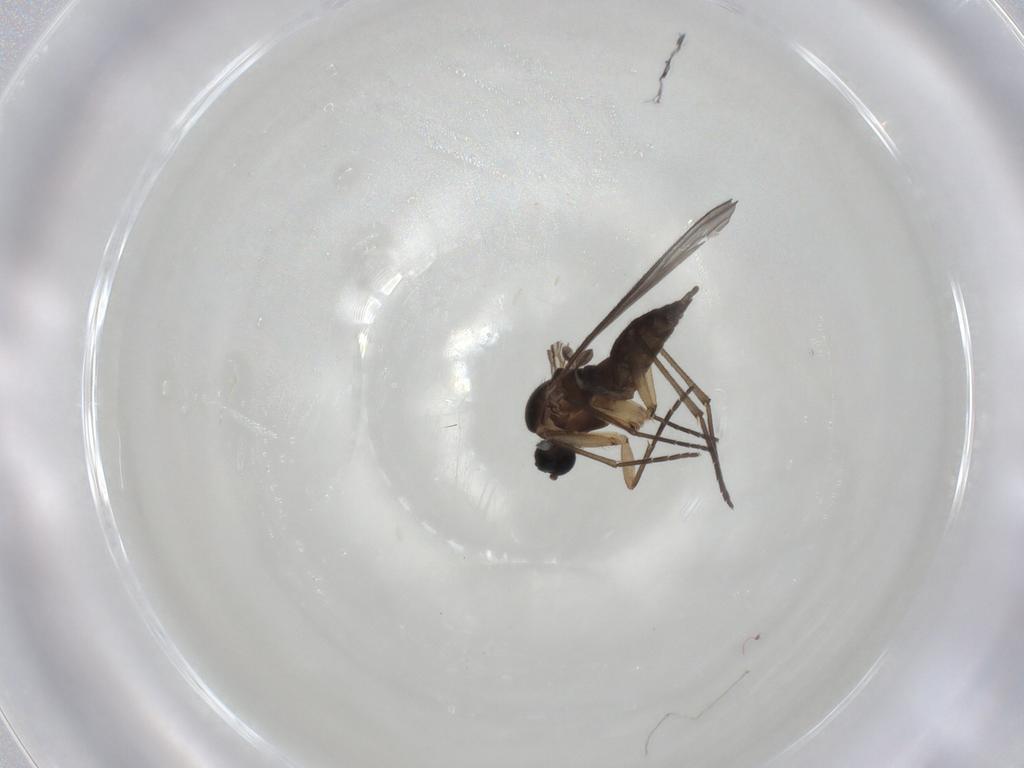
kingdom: Animalia
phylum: Arthropoda
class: Insecta
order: Diptera
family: Sciaridae
